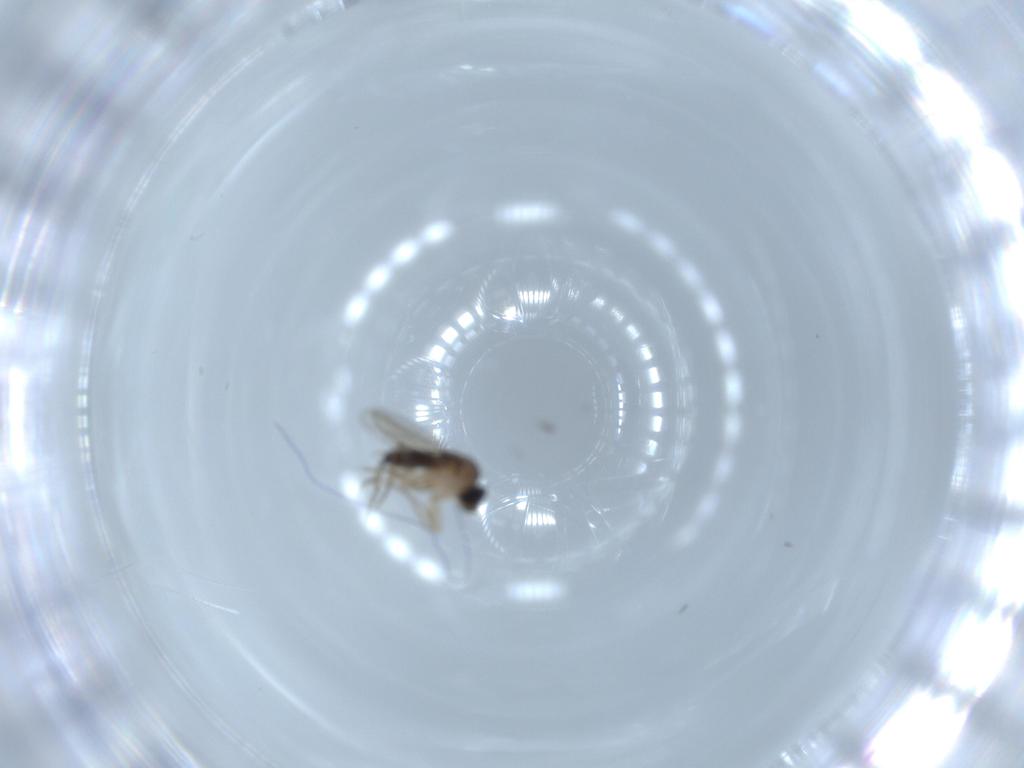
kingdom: Animalia
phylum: Arthropoda
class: Insecta
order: Diptera
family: Phoridae
